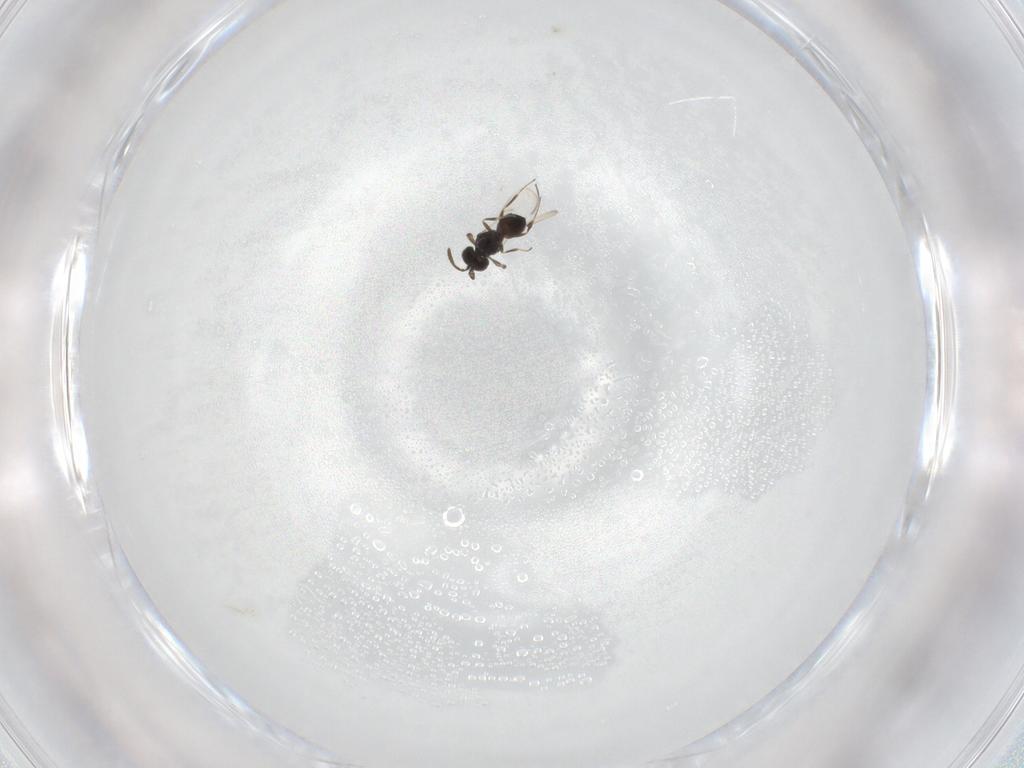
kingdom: Animalia
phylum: Arthropoda
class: Insecta
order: Hymenoptera
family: Scelionidae
